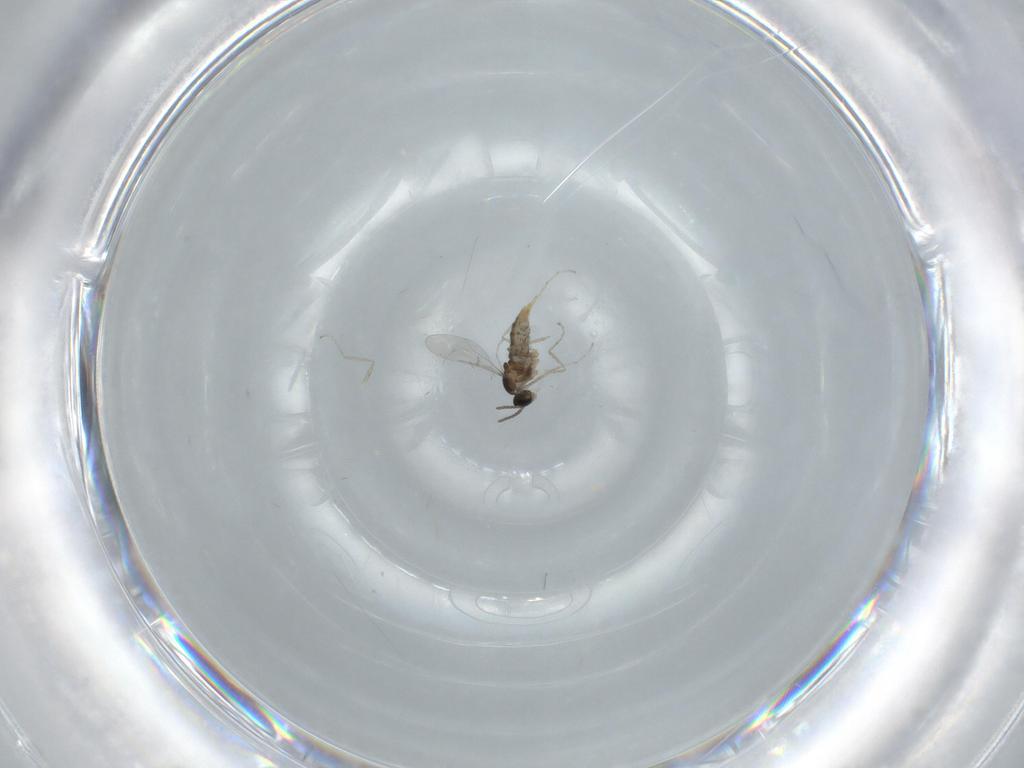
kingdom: Animalia
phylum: Arthropoda
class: Insecta
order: Diptera
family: Cecidomyiidae
